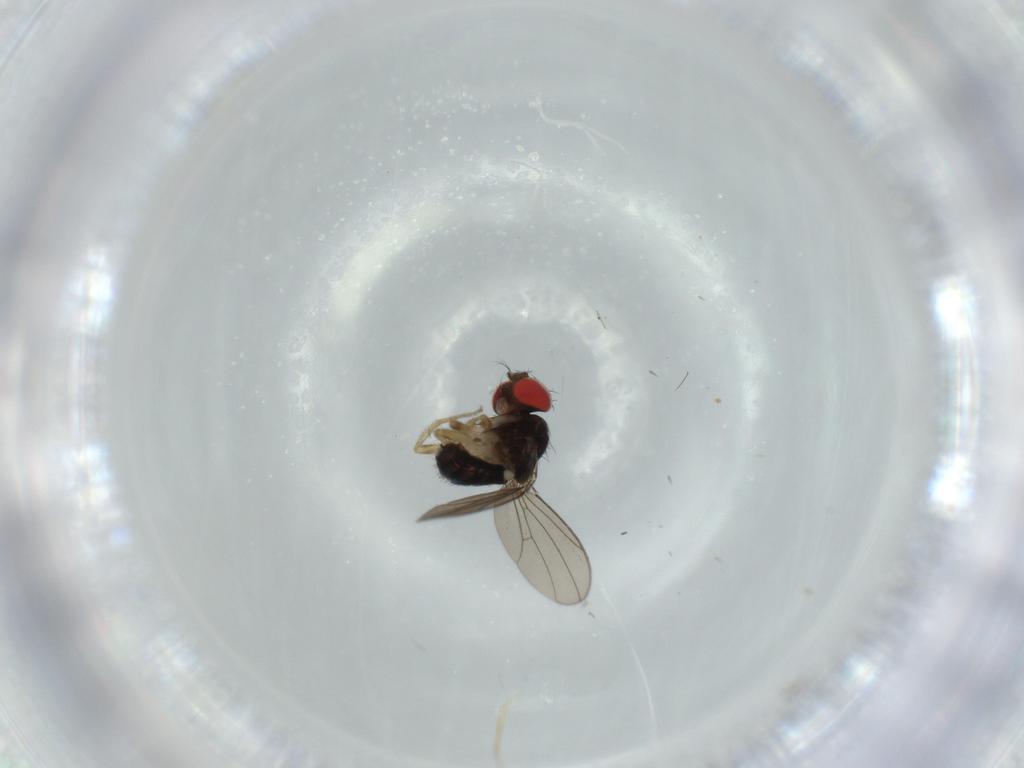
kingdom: Animalia
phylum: Arthropoda
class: Insecta
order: Diptera
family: Drosophilidae
